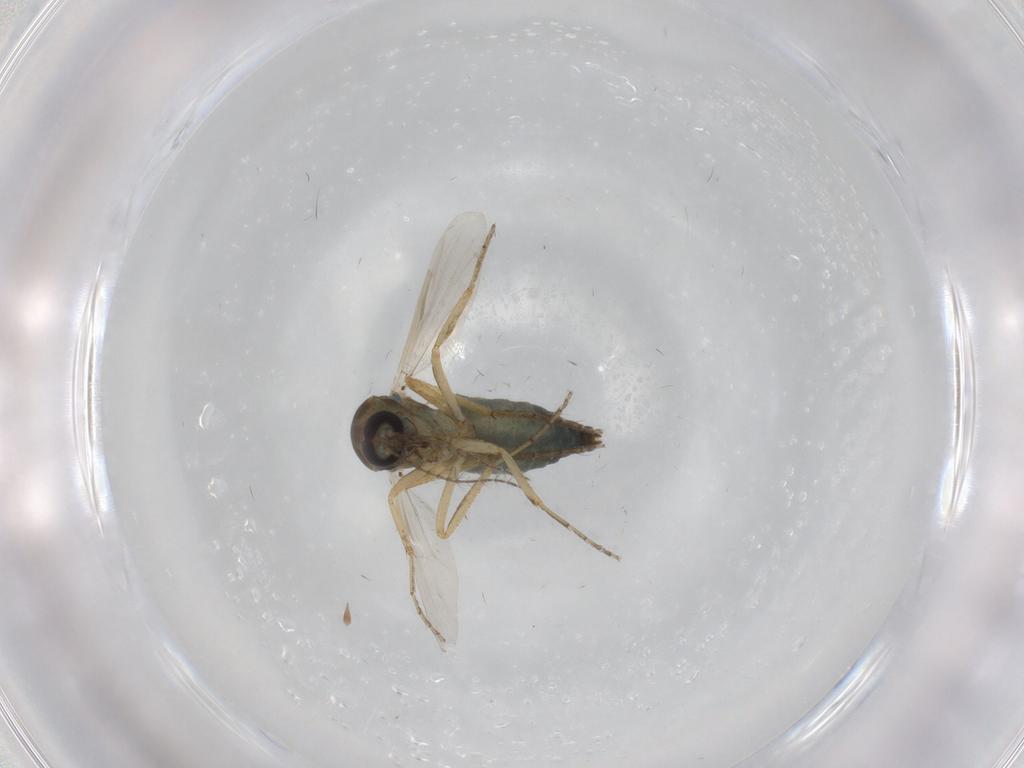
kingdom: Animalia
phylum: Arthropoda
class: Insecta
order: Diptera
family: Ceratopogonidae
